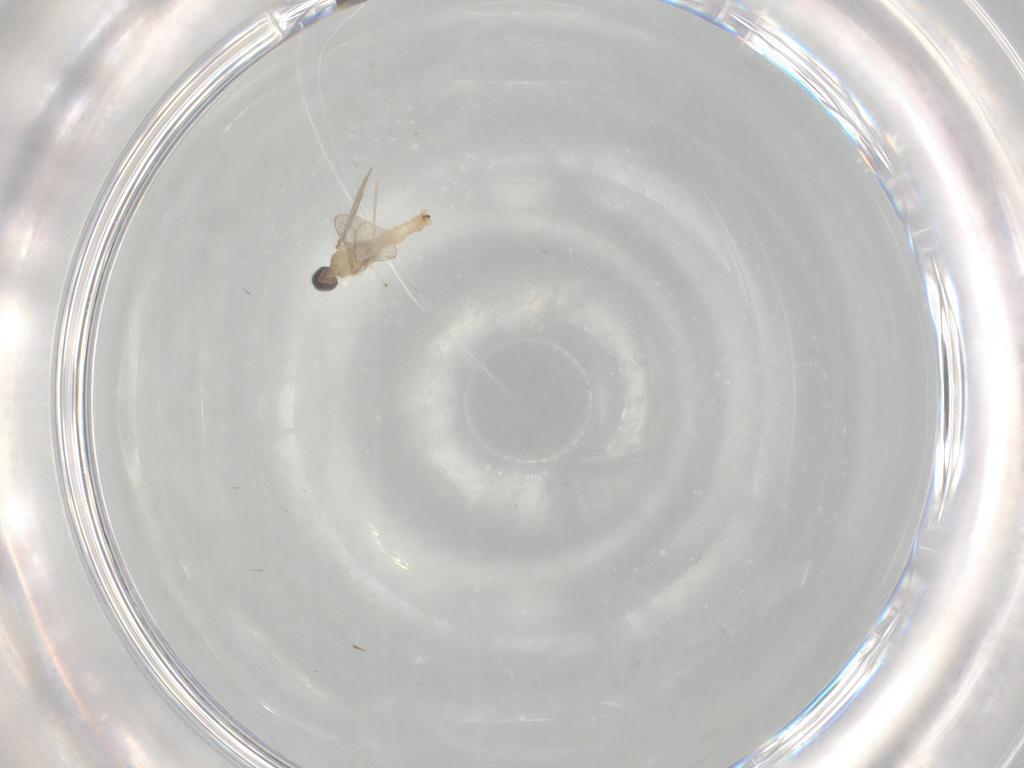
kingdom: Animalia
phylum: Arthropoda
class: Insecta
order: Diptera
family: Cecidomyiidae
